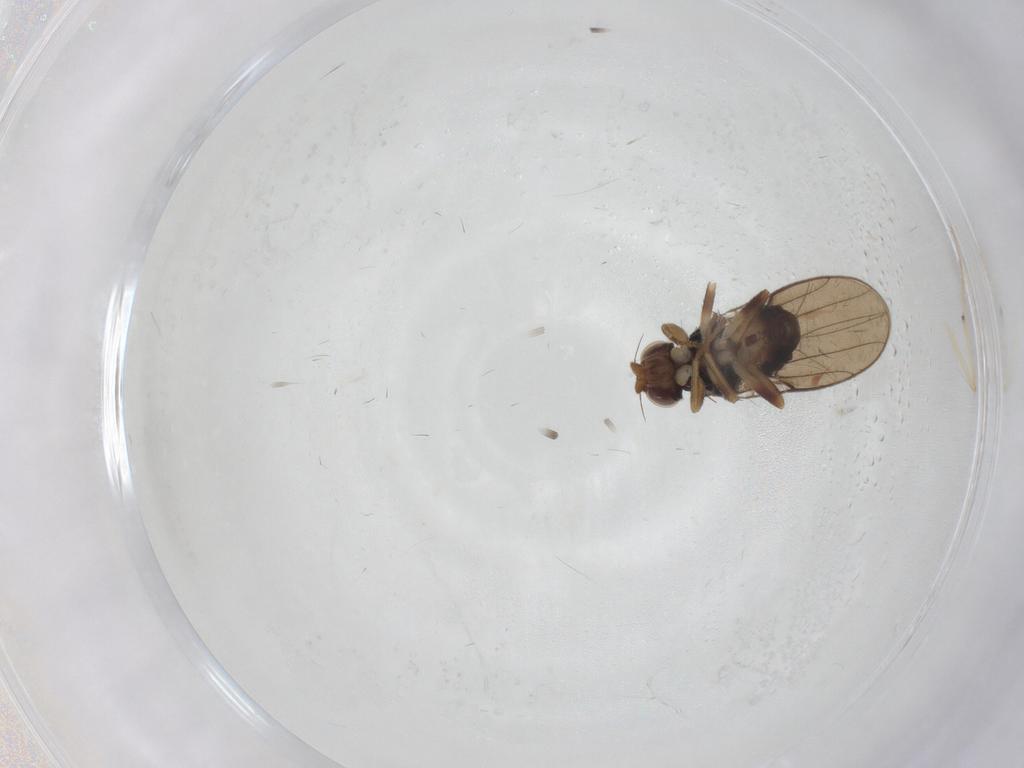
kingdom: Animalia
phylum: Arthropoda
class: Insecta
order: Diptera
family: Chloropidae
